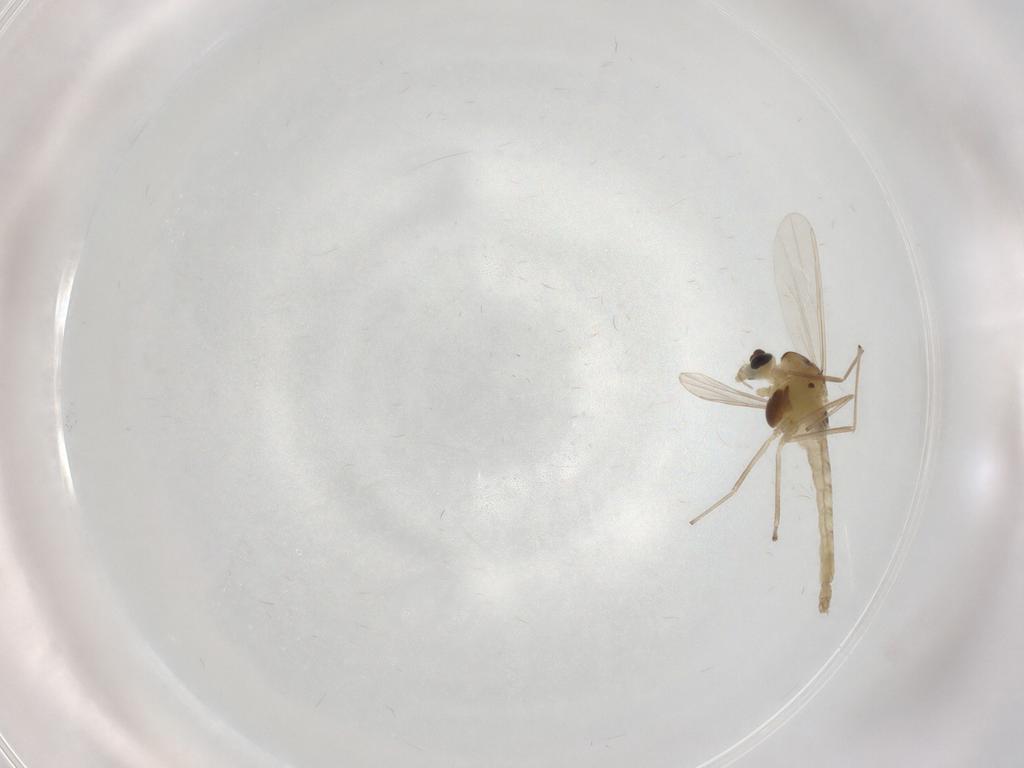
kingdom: Animalia
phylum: Arthropoda
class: Insecta
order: Diptera
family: Chironomidae
